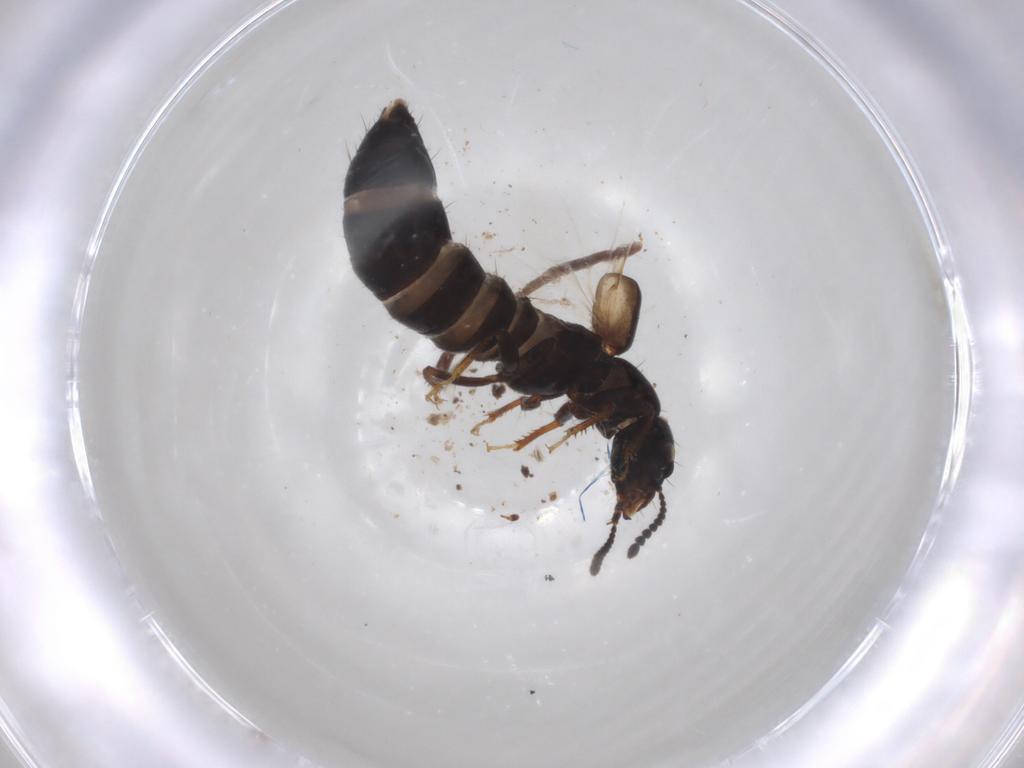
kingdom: Animalia
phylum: Arthropoda
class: Insecta
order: Coleoptera
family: Staphylinidae
